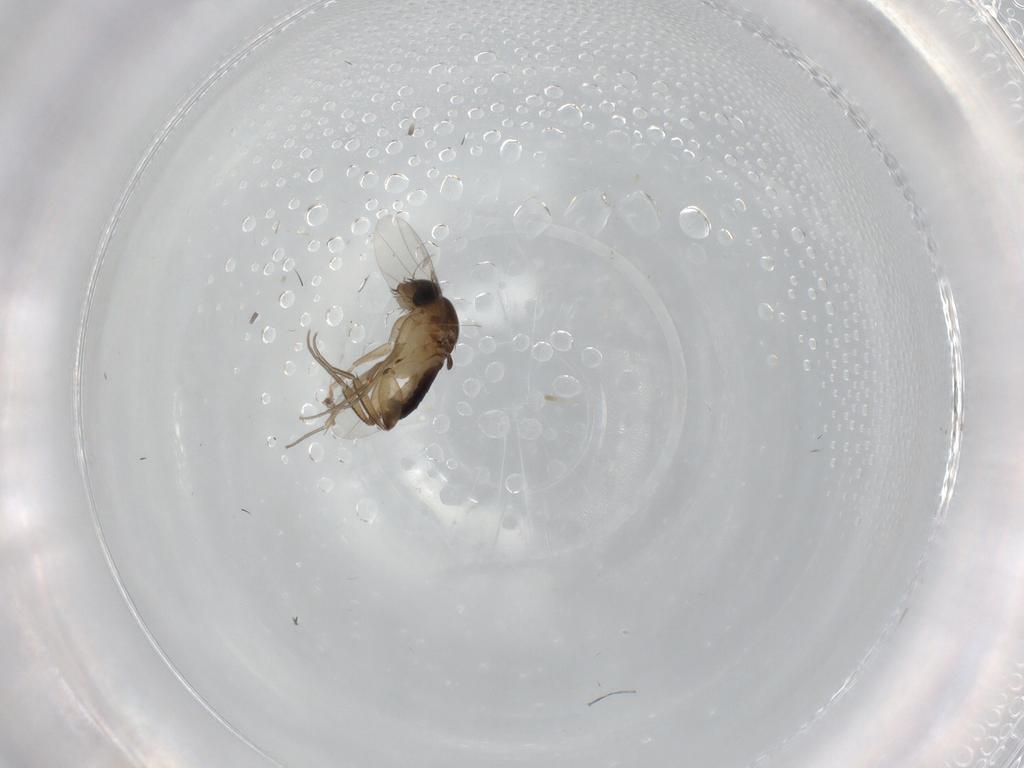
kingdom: Animalia
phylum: Arthropoda
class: Insecta
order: Diptera
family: Phoridae
